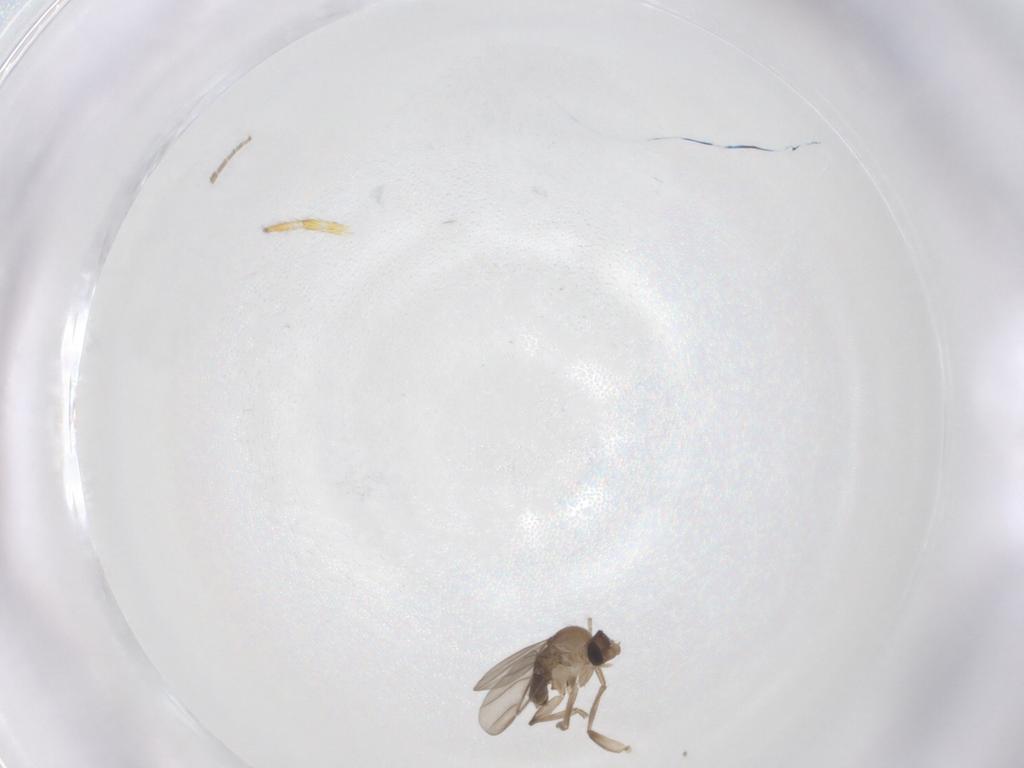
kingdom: Animalia
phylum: Arthropoda
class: Insecta
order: Diptera
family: Phoridae
